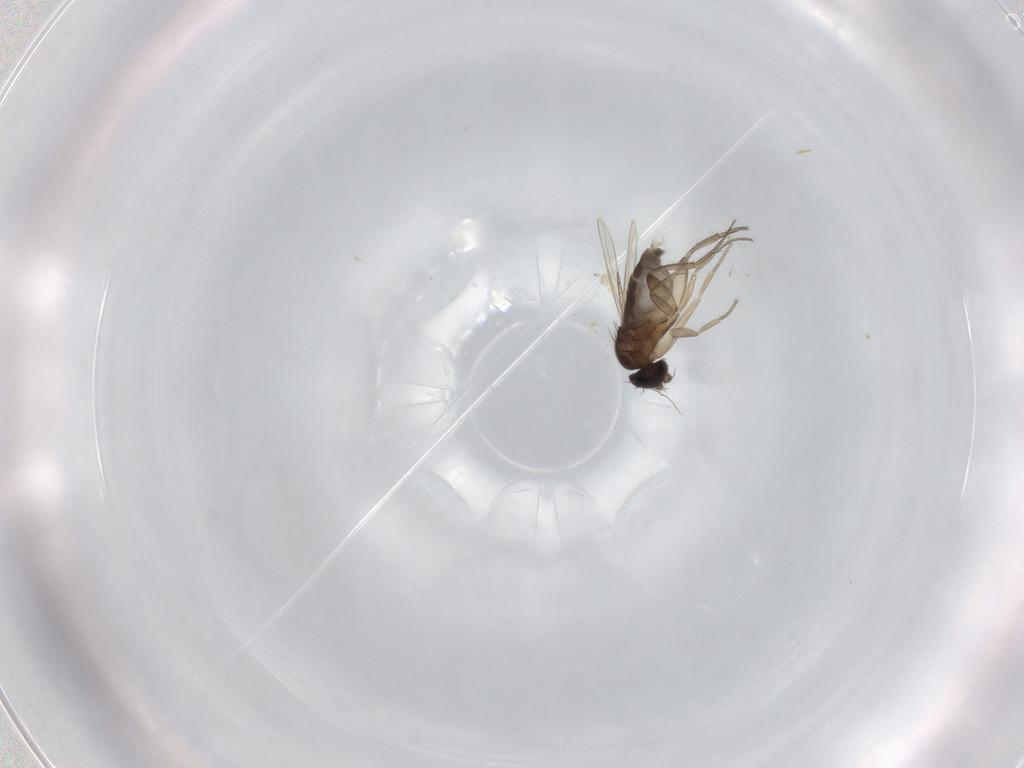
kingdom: Animalia
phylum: Arthropoda
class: Insecta
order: Diptera
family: Phoridae
